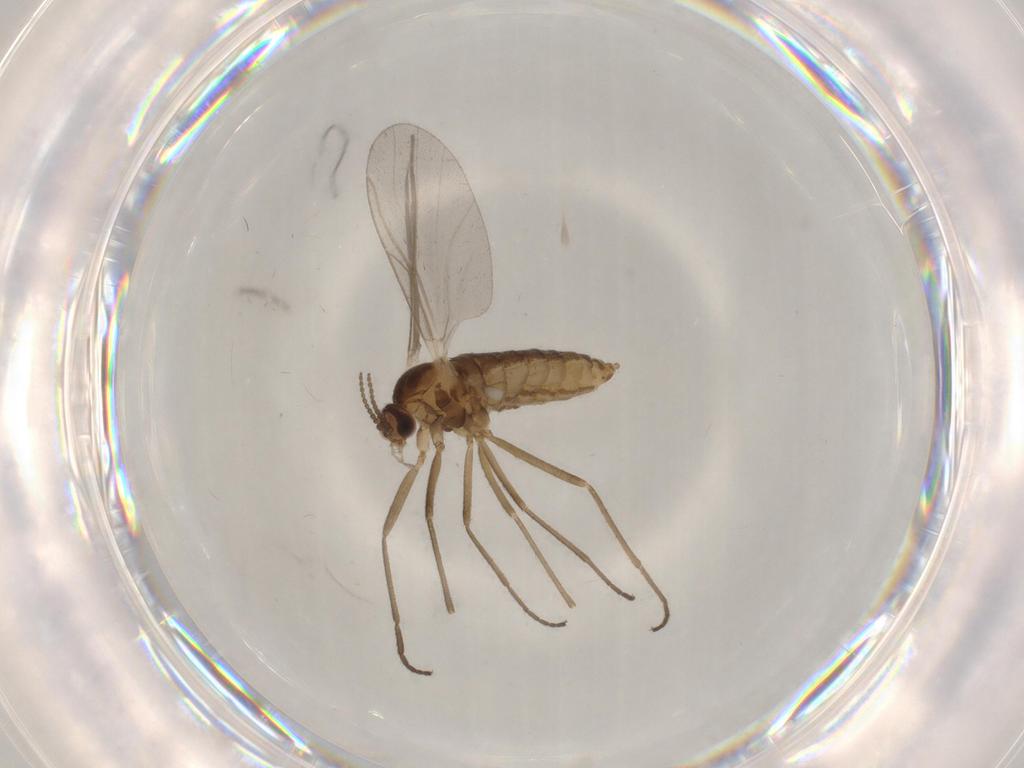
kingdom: Animalia
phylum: Arthropoda
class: Insecta
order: Diptera
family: Cecidomyiidae
